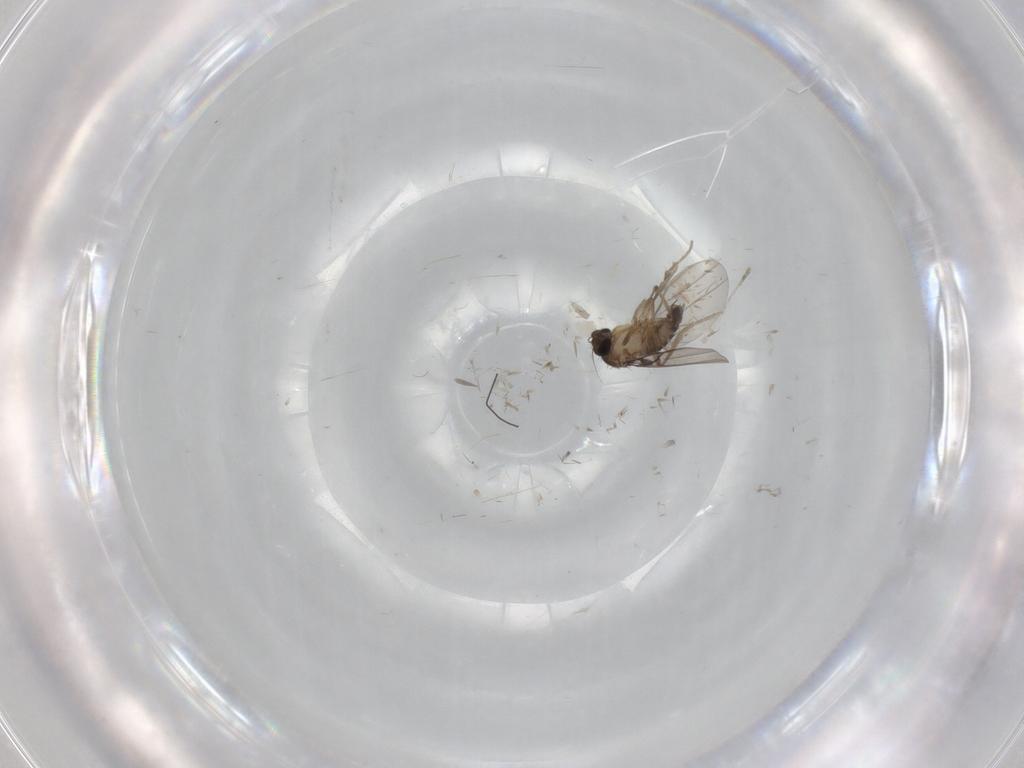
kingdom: Animalia
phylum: Arthropoda
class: Insecta
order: Diptera
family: Phoridae
